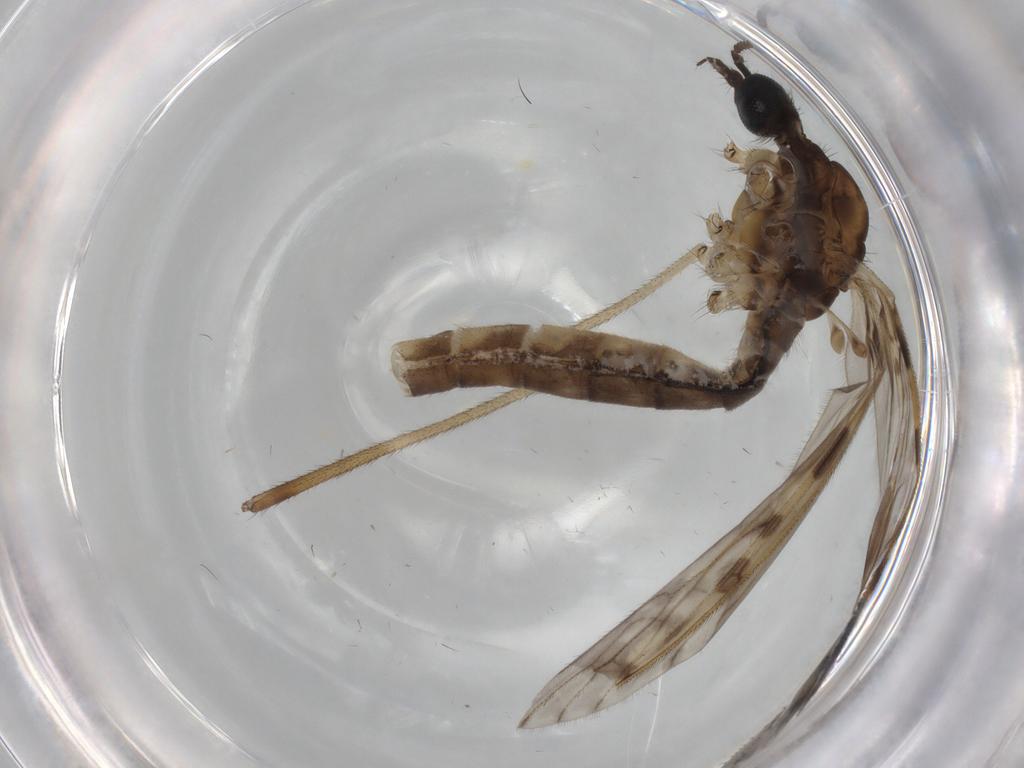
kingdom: Animalia
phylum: Arthropoda
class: Insecta
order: Diptera
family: Limoniidae
